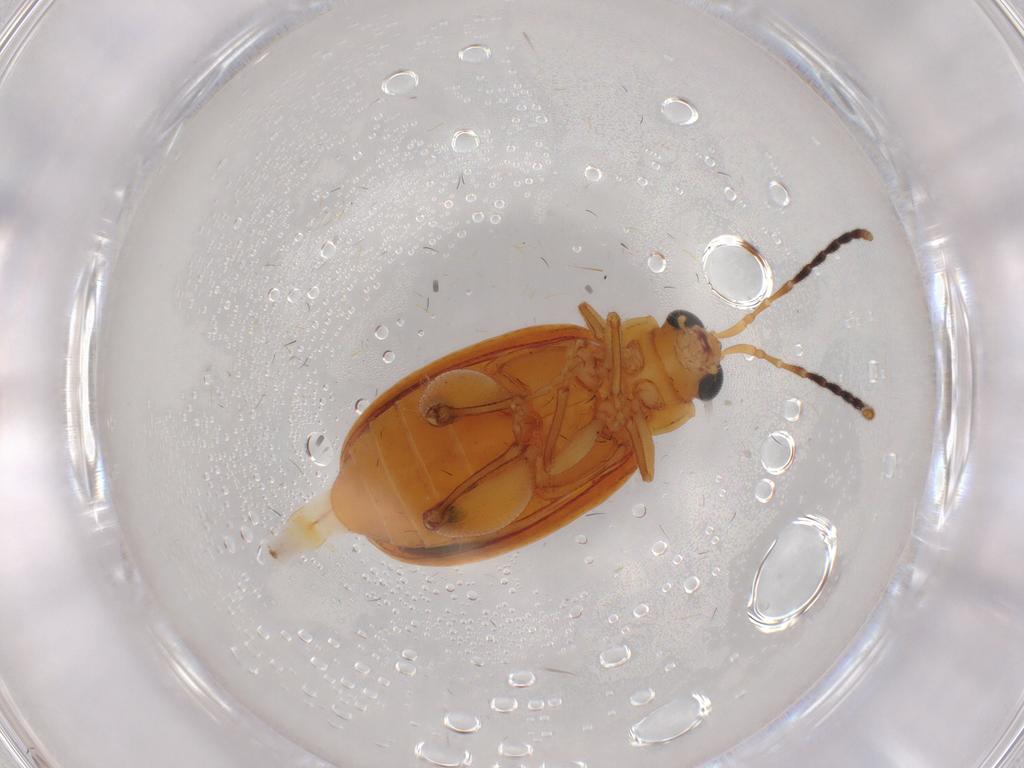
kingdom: Animalia
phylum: Arthropoda
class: Insecta
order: Coleoptera
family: Chrysomelidae
